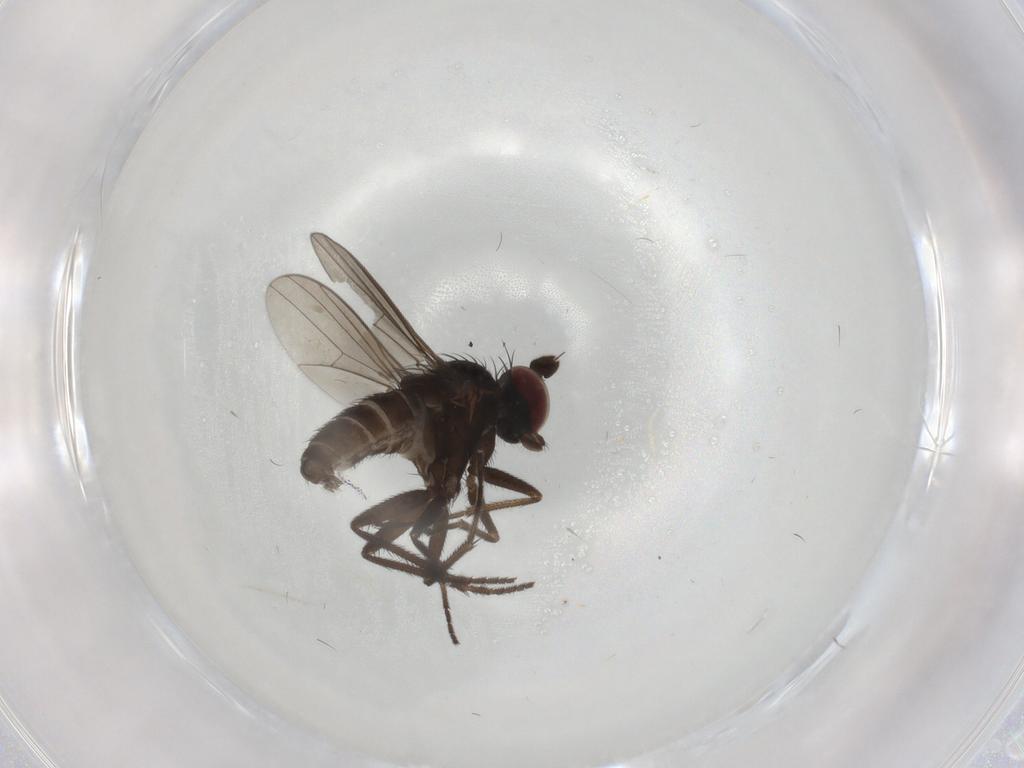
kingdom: Animalia
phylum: Arthropoda
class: Insecta
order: Diptera
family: Dolichopodidae
